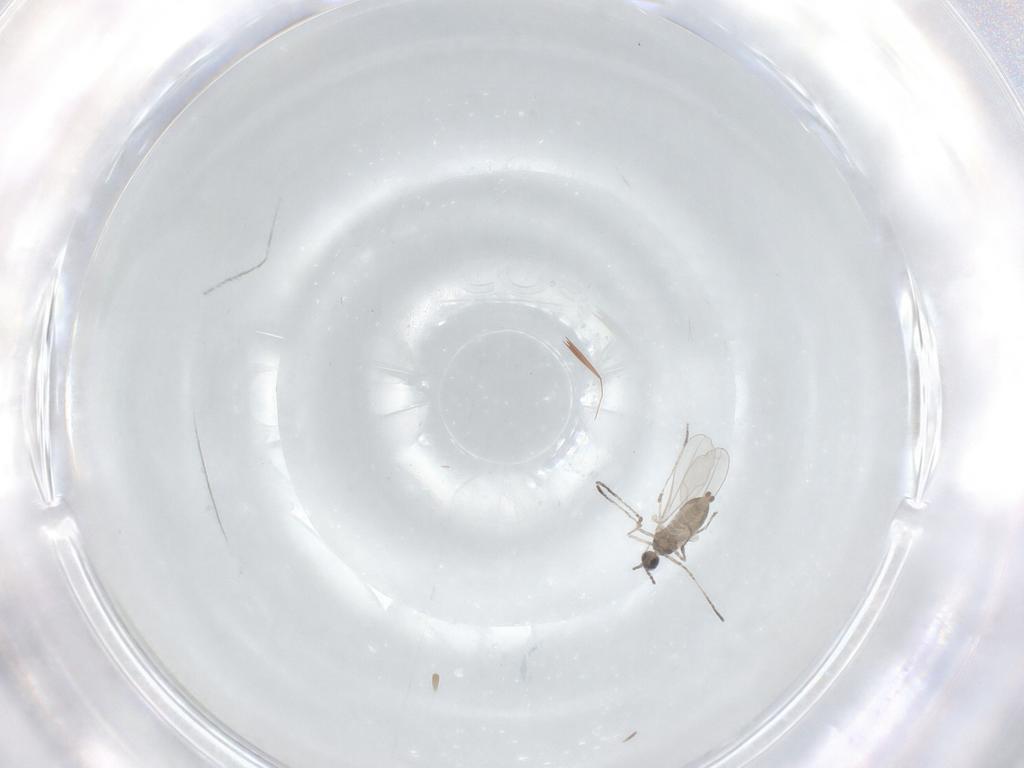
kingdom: Animalia
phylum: Arthropoda
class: Insecta
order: Diptera
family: Cecidomyiidae
